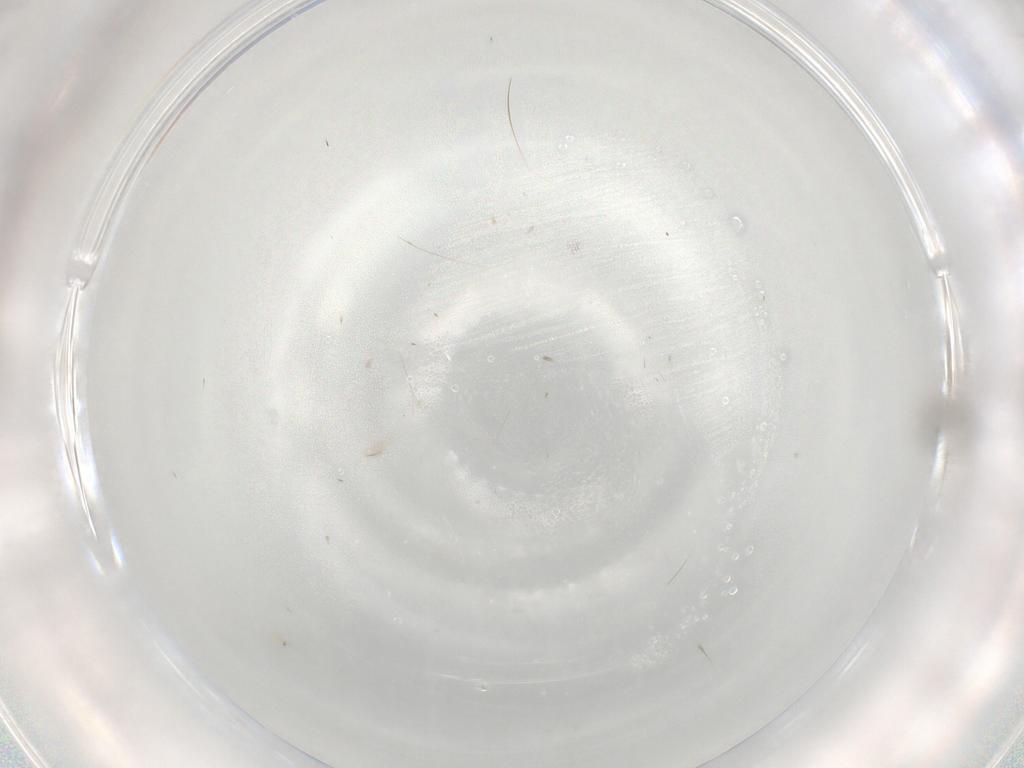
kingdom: Animalia
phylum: Arthropoda
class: Insecta
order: Hymenoptera
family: Eupelmidae
